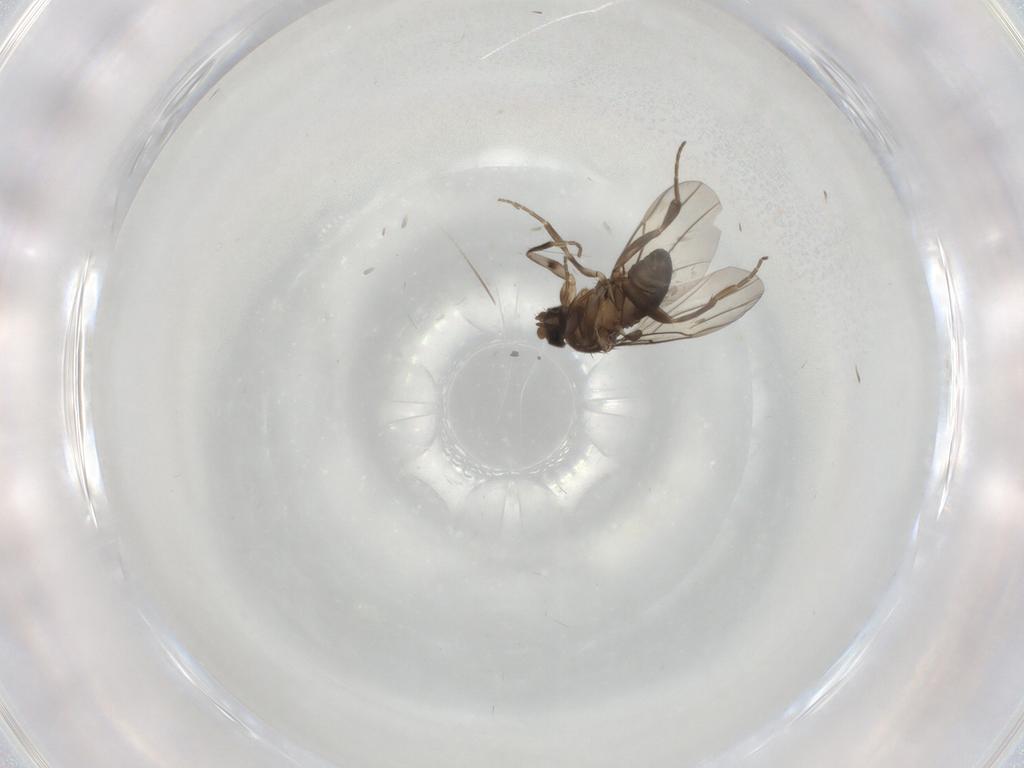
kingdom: Animalia
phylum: Arthropoda
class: Insecta
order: Diptera
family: Phoridae
